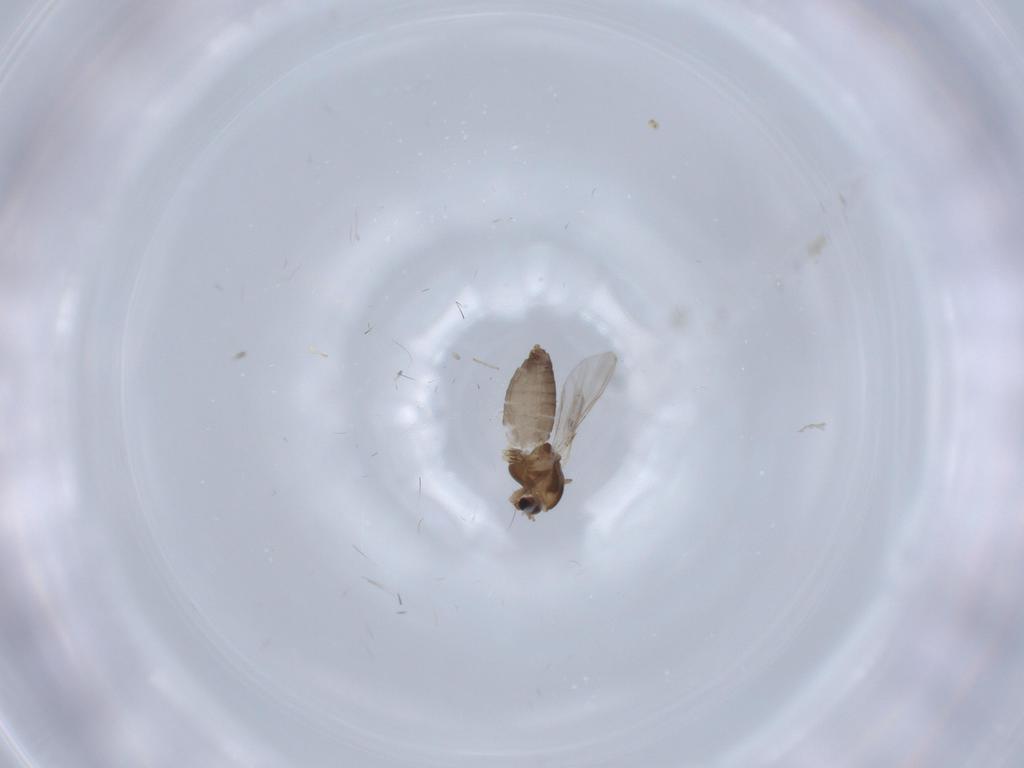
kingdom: Animalia
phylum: Arthropoda
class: Insecta
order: Diptera
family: Chironomidae
